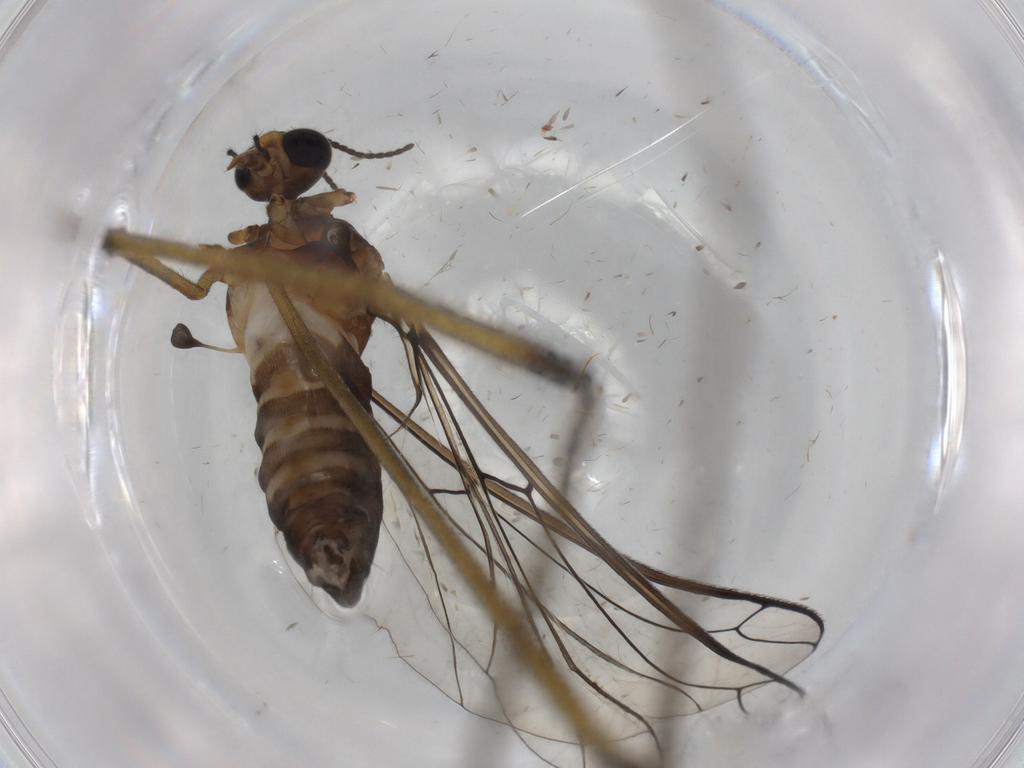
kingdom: Animalia
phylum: Arthropoda
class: Insecta
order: Diptera
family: Blephariceridae
